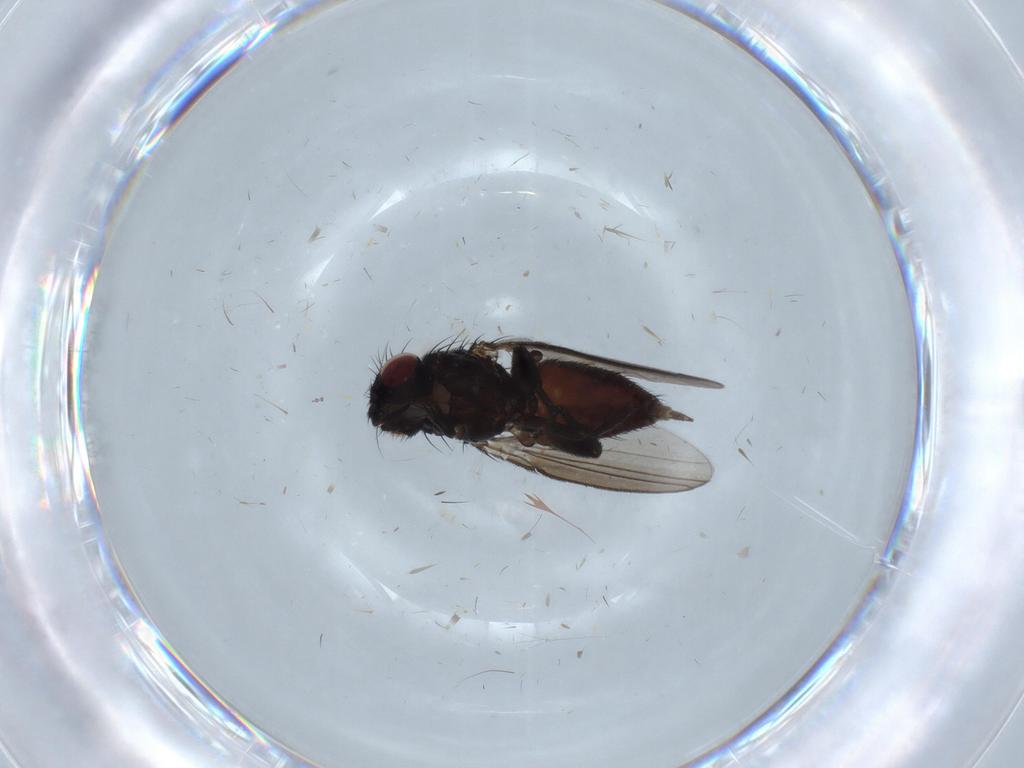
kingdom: Animalia
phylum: Arthropoda
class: Insecta
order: Diptera
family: Milichiidae
